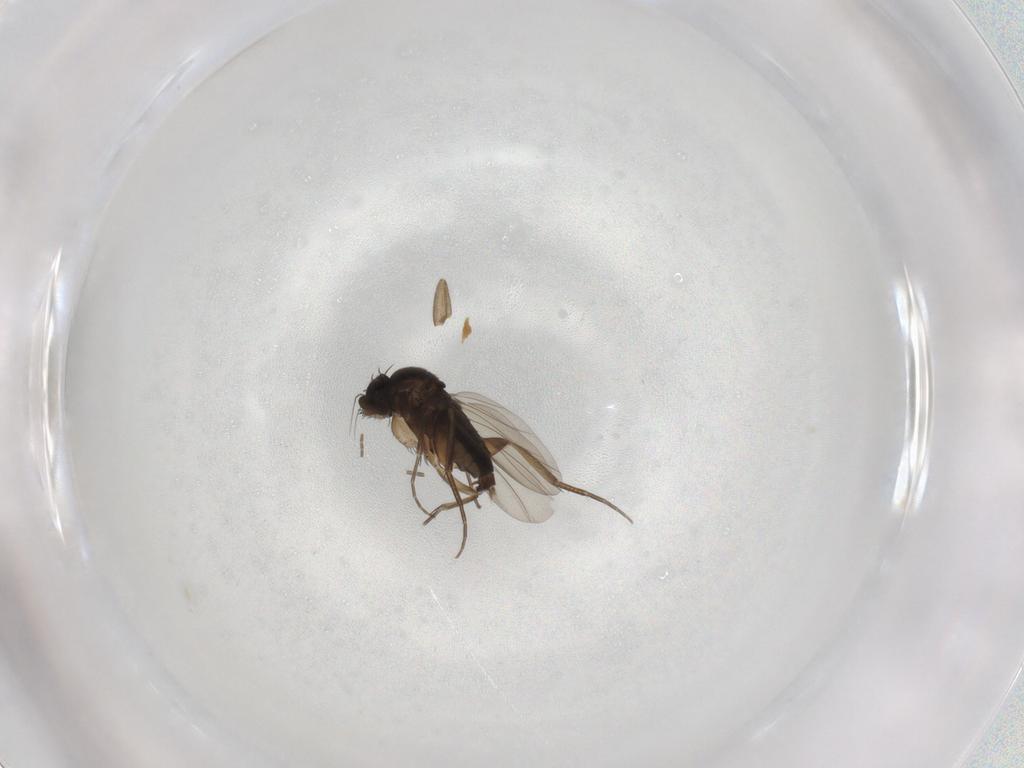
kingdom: Animalia
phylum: Arthropoda
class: Insecta
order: Diptera
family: Phoridae
